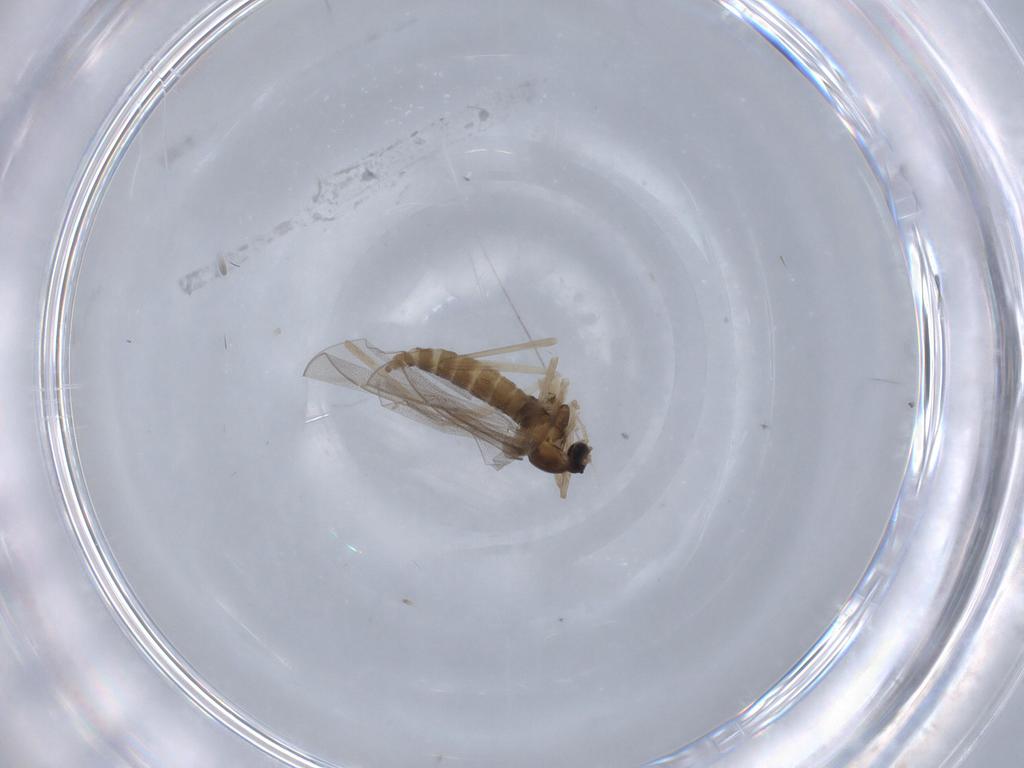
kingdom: Animalia
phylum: Arthropoda
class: Insecta
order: Diptera
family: Cecidomyiidae
